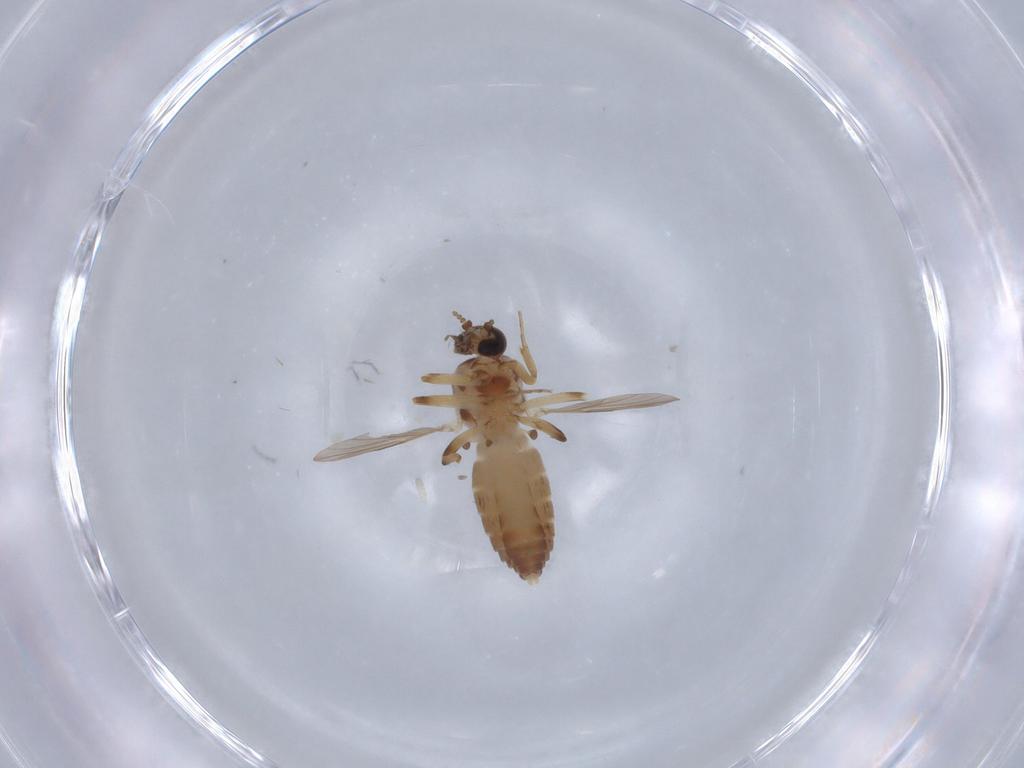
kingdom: Animalia
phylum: Arthropoda
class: Insecta
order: Diptera
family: Ceratopogonidae
